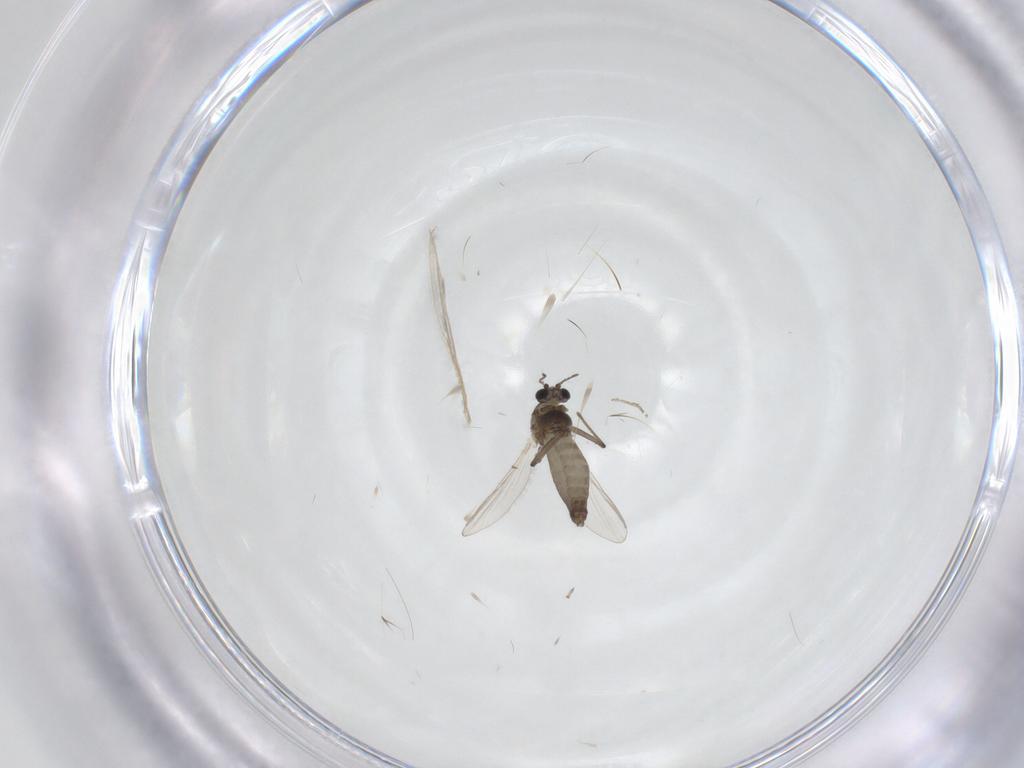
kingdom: Animalia
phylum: Arthropoda
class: Insecta
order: Diptera
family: Chironomidae
